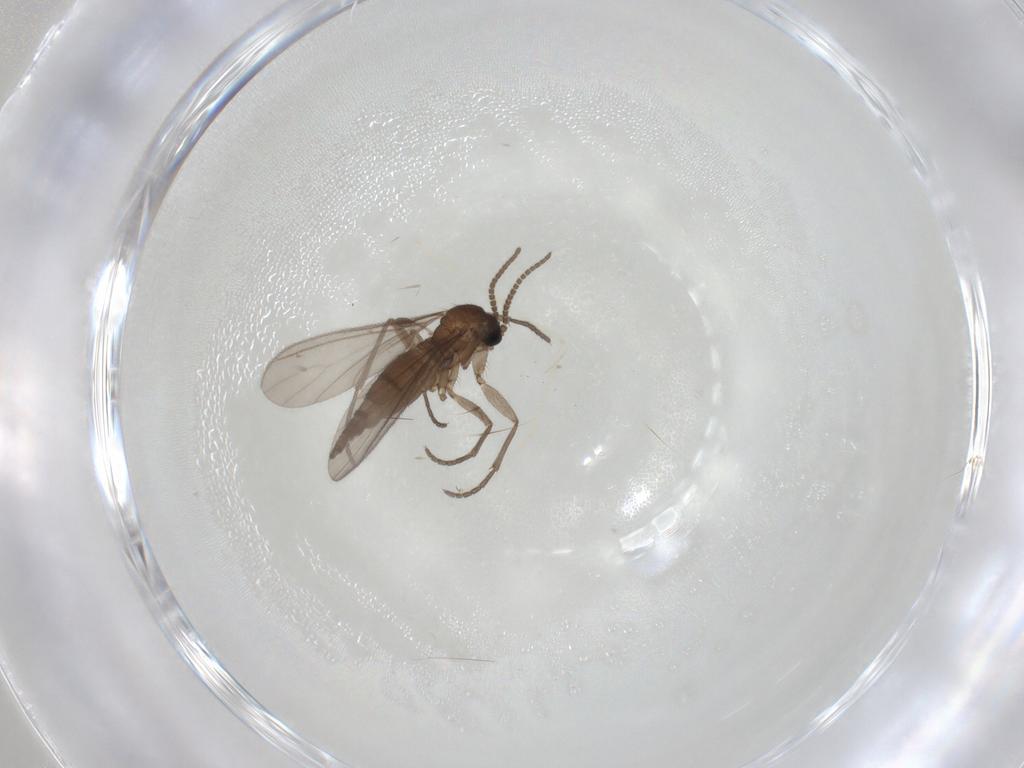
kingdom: Animalia
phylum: Arthropoda
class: Insecta
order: Diptera
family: Sciaridae
